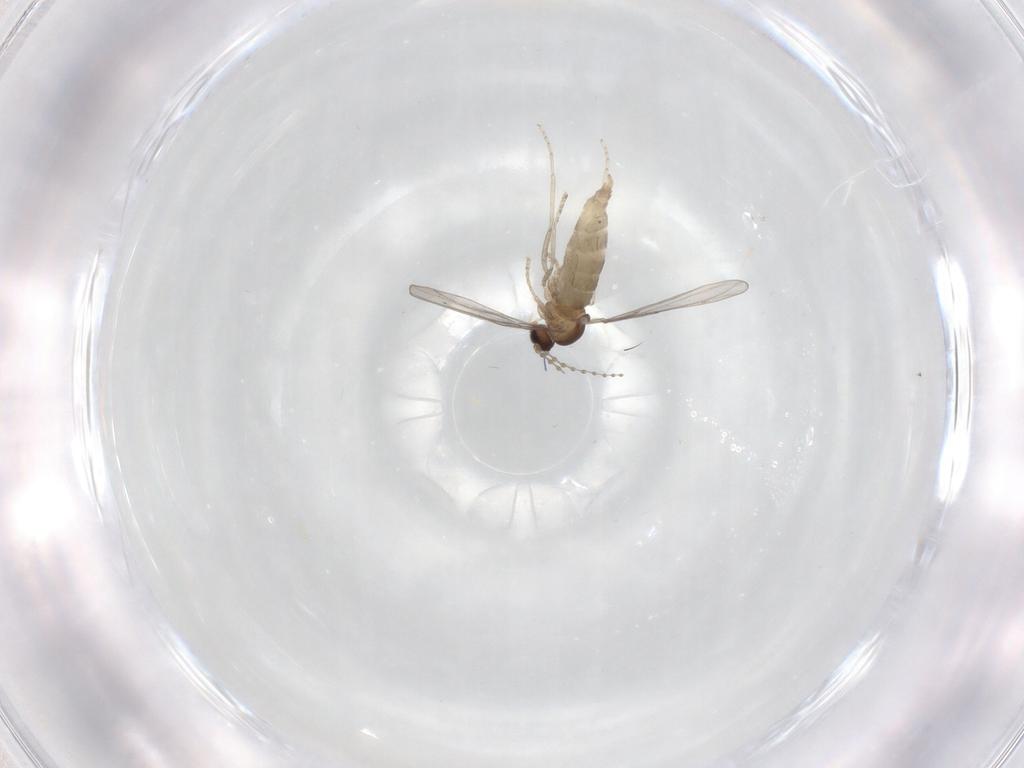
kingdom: Animalia
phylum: Arthropoda
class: Insecta
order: Diptera
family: Cecidomyiidae
